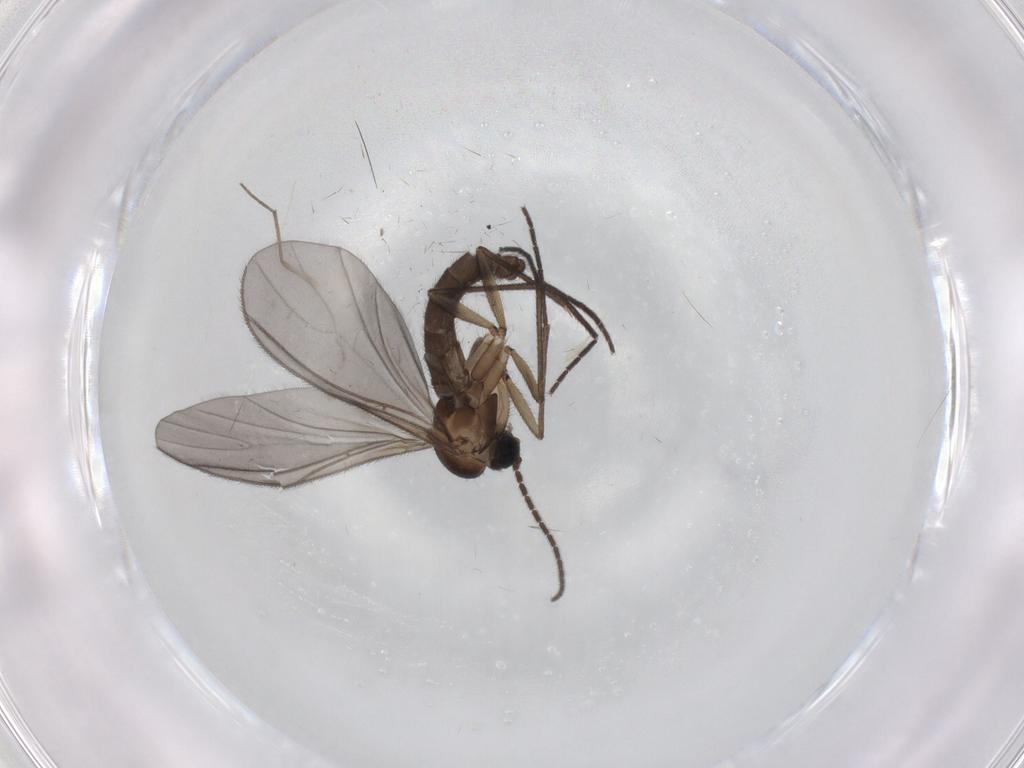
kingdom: Animalia
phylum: Arthropoda
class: Insecta
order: Diptera
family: Sciaridae
